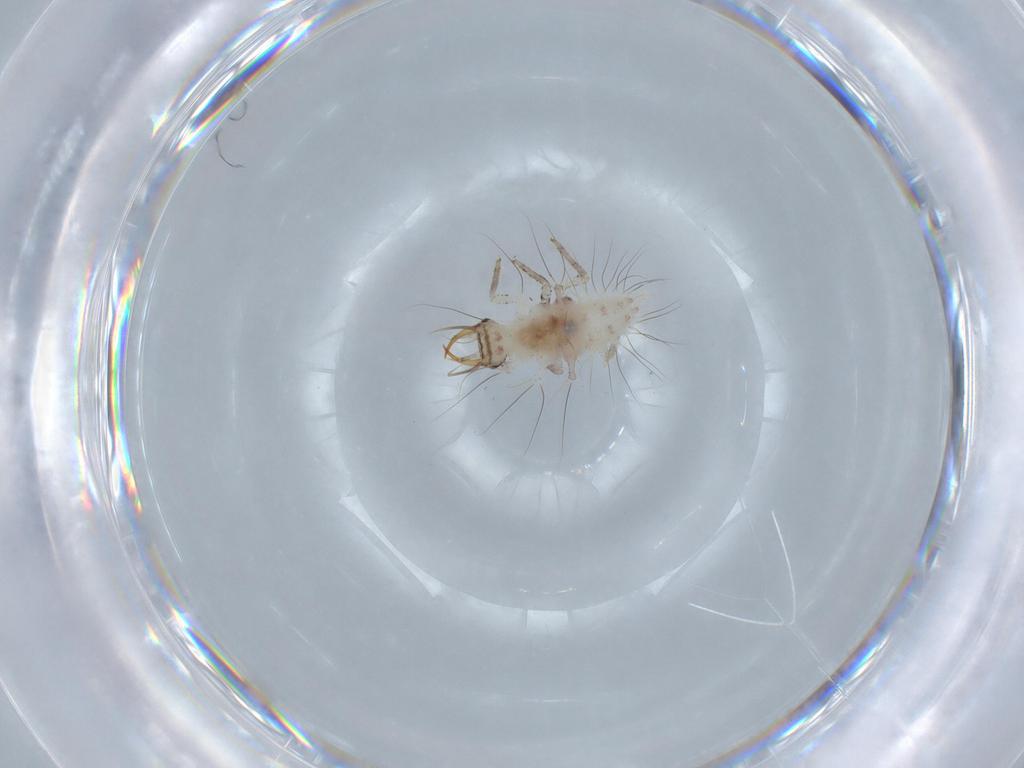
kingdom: Animalia
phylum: Arthropoda
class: Insecta
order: Neuroptera
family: Chrysopidae
